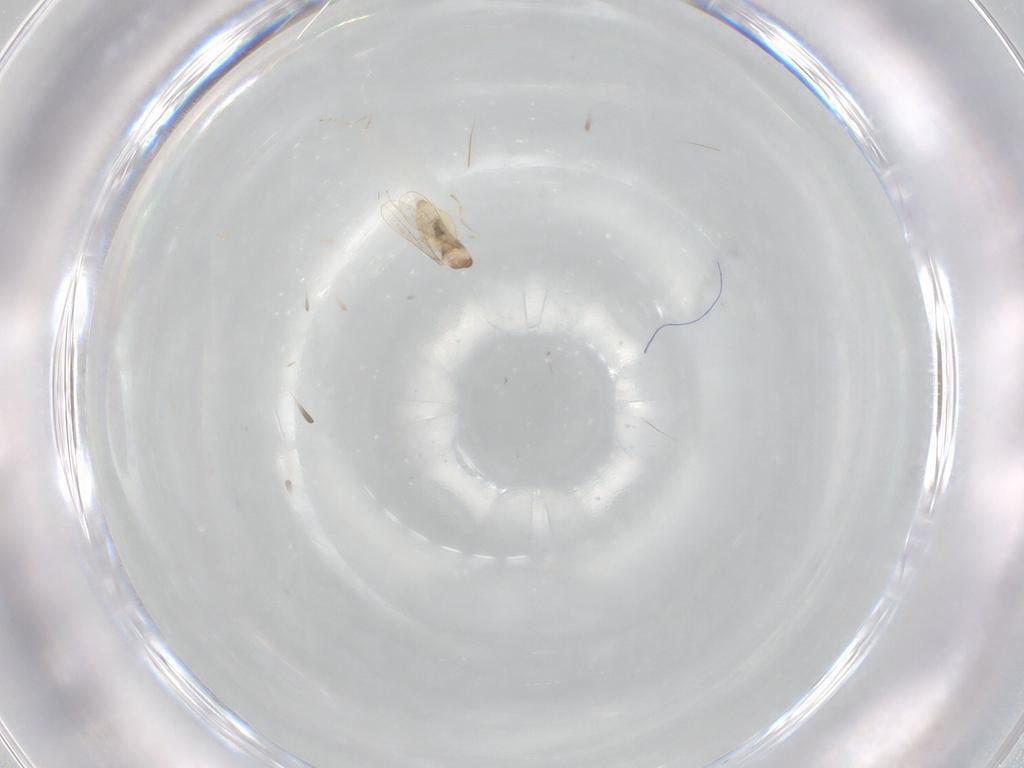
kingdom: Animalia
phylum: Arthropoda
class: Insecta
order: Diptera
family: Cecidomyiidae
